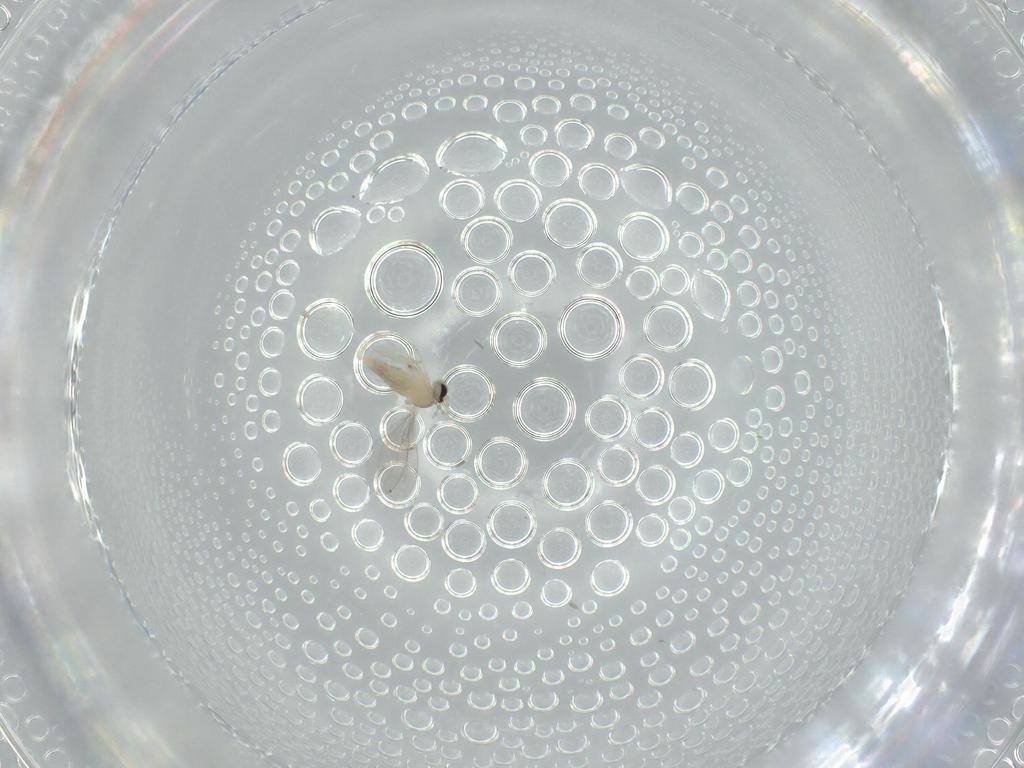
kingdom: Animalia
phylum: Arthropoda
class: Insecta
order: Diptera
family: Cecidomyiidae
